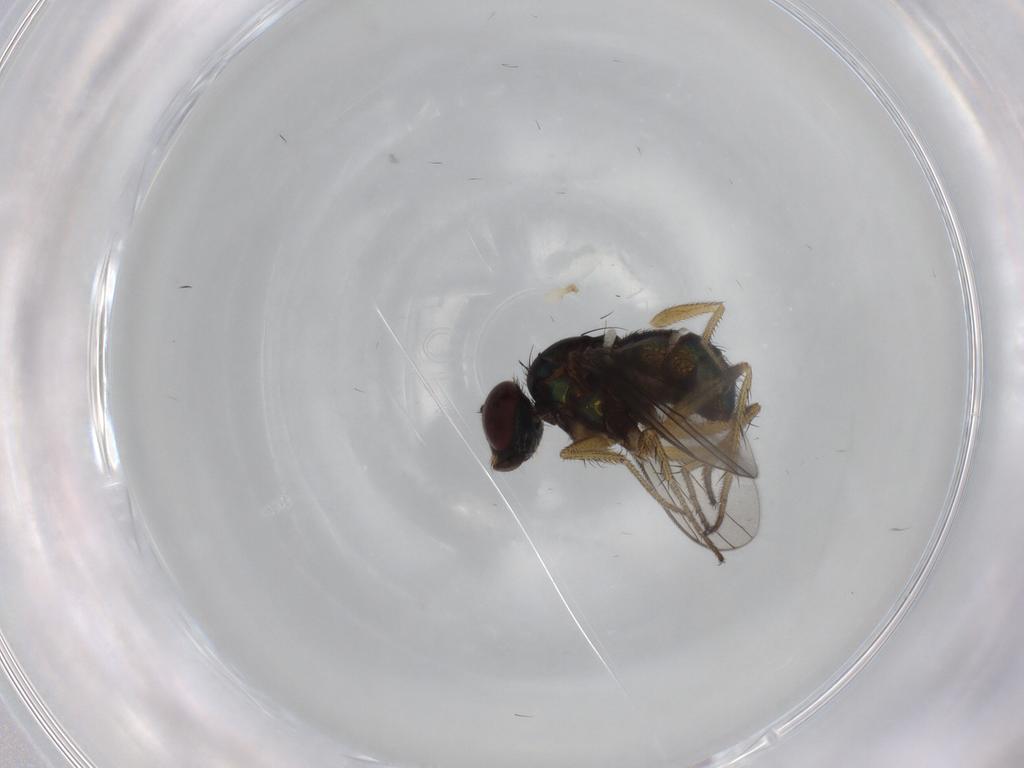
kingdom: Animalia
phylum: Arthropoda
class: Insecta
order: Diptera
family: Dolichopodidae
